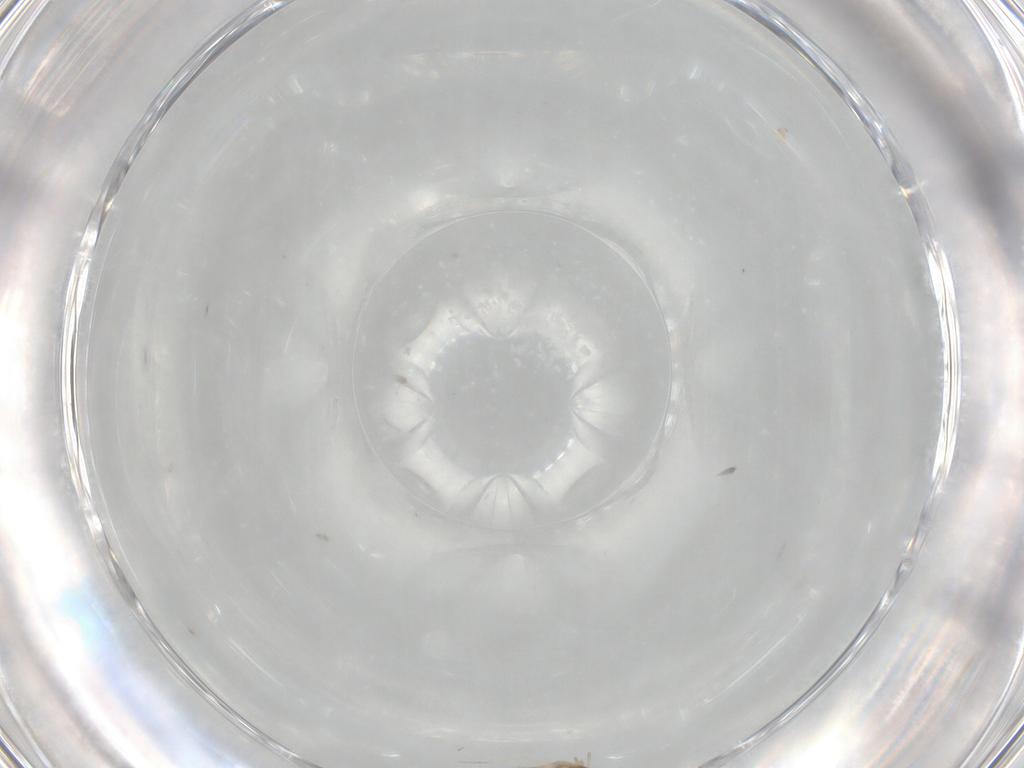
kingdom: Animalia
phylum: Arthropoda
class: Insecta
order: Diptera
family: Cecidomyiidae
